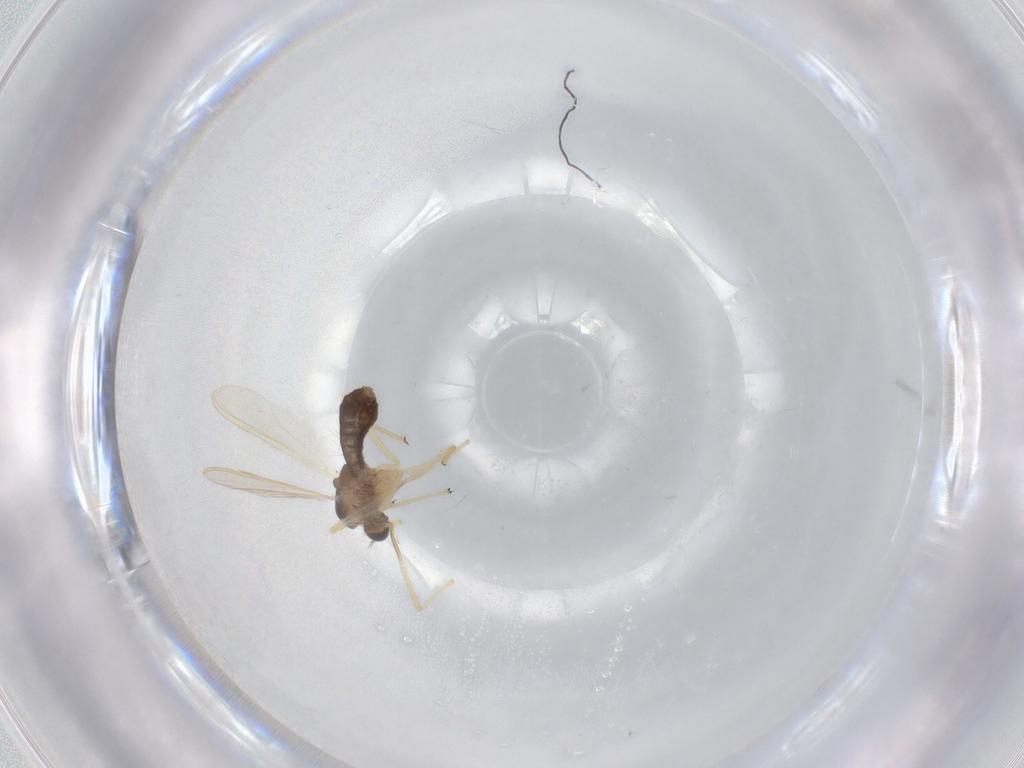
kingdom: Animalia
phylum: Arthropoda
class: Insecta
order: Diptera
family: Chironomidae
